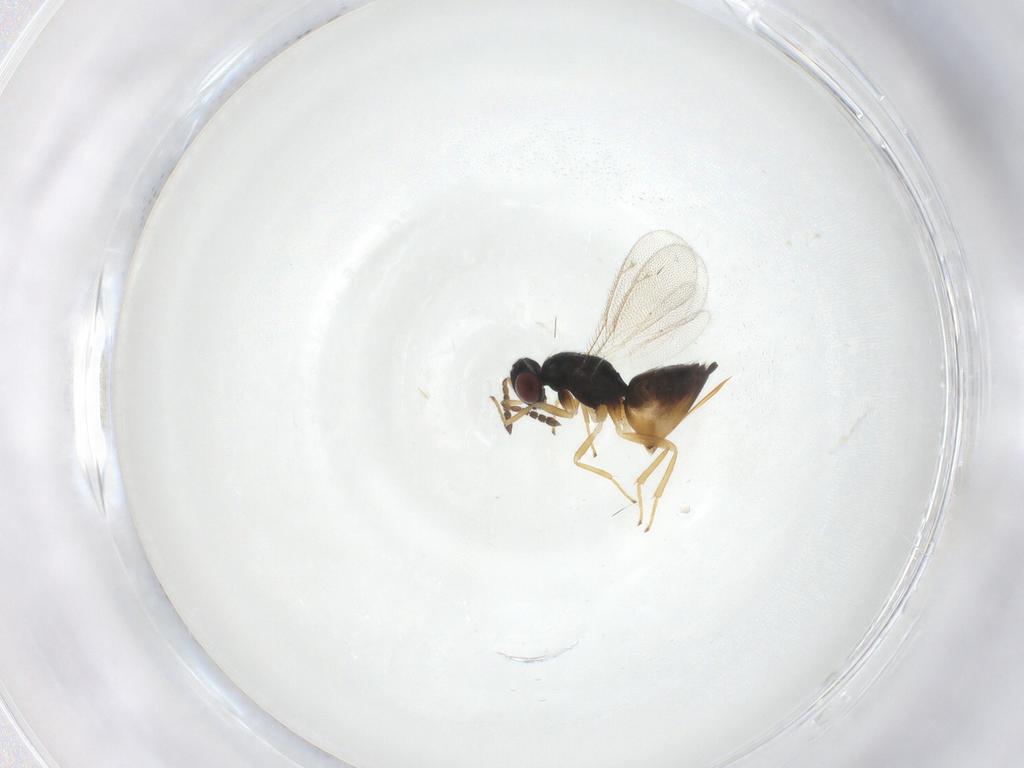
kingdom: Animalia
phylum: Arthropoda
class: Insecta
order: Hymenoptera
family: Eulophidae
